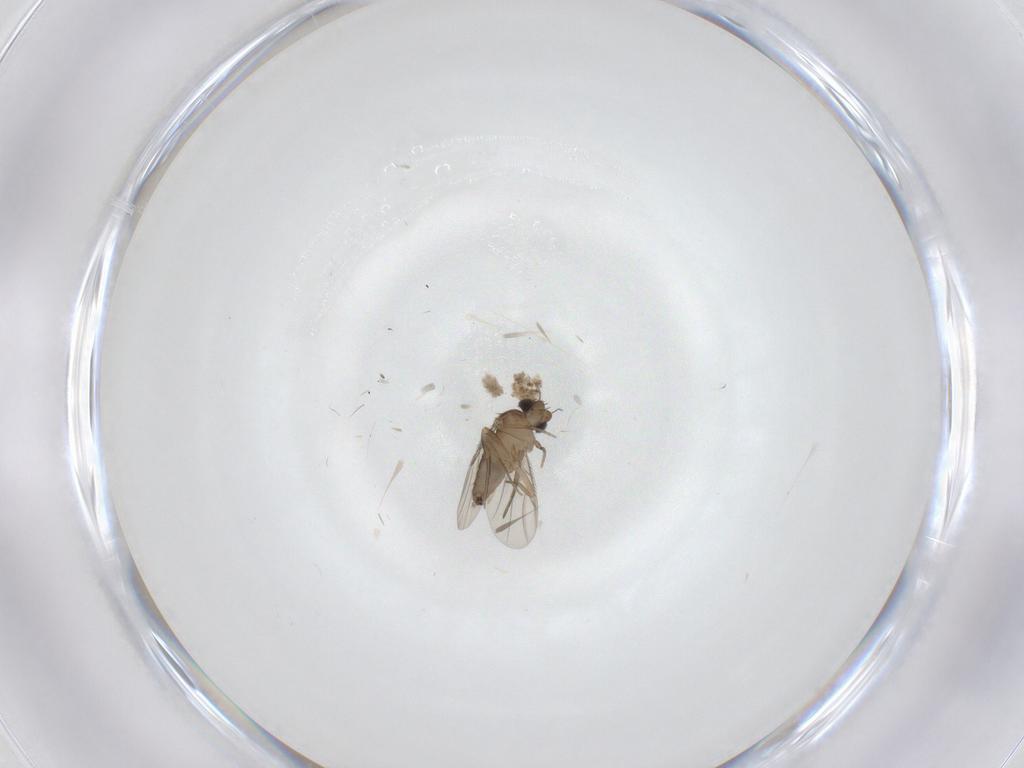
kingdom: Animalia
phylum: Arthropoda
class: Insecta
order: Diptera
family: Phoridae
